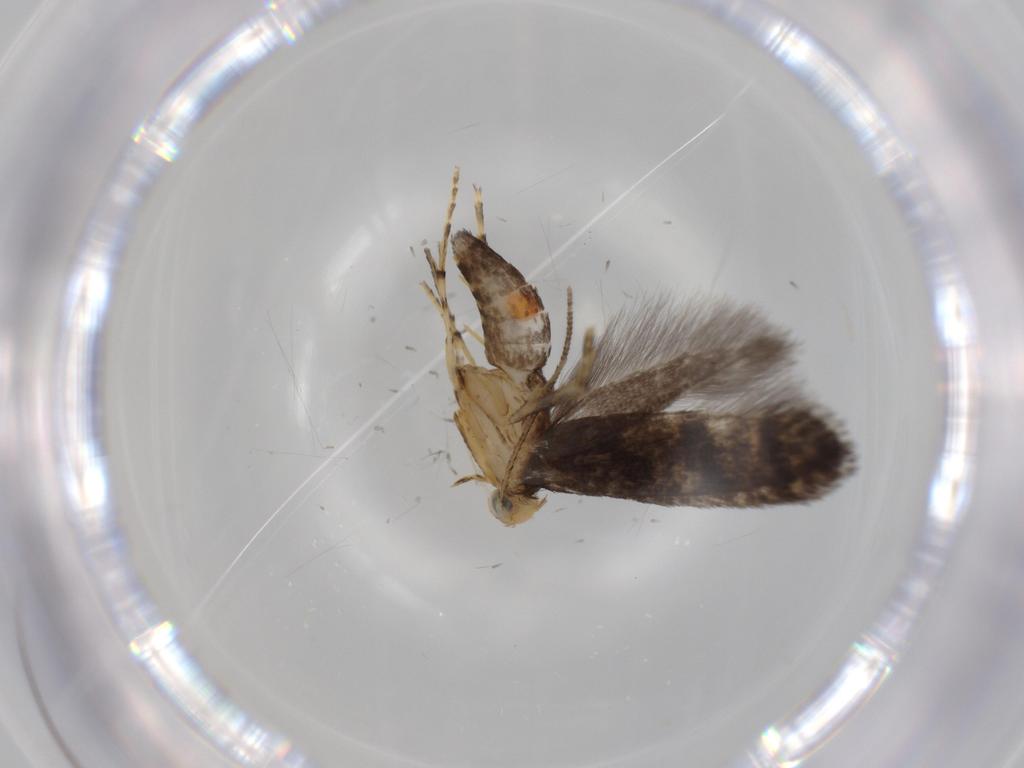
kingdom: Animalia
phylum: Arthropoda
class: Insecta
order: Lepidoptera
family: Argyresthiidae
